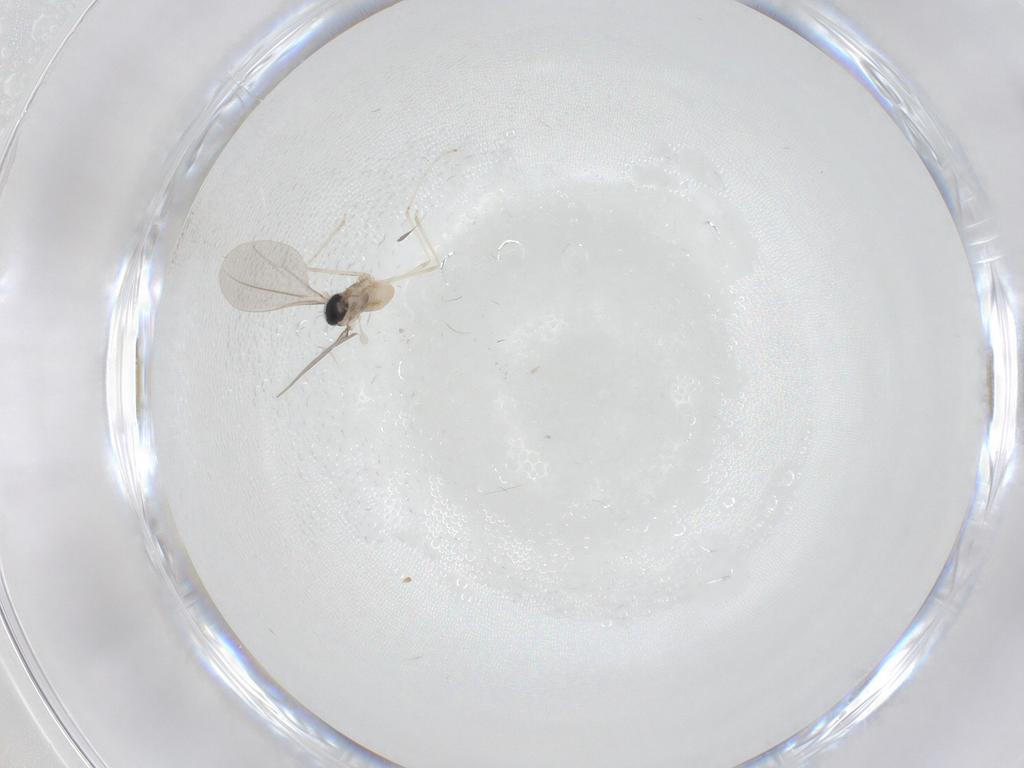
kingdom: Animalia
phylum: Arthropoda
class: Insecta
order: Diptera
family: Cecidomyiidae
